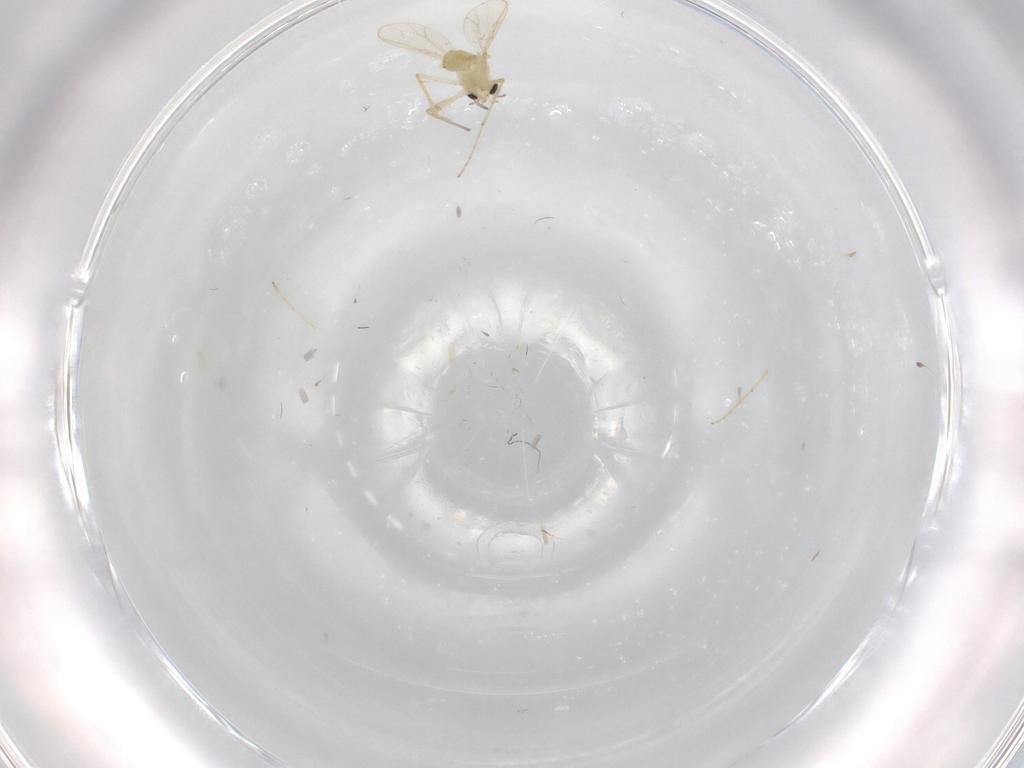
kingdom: Animalia
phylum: Arthropoda
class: Insecta
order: Diptera
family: Chironomidae
